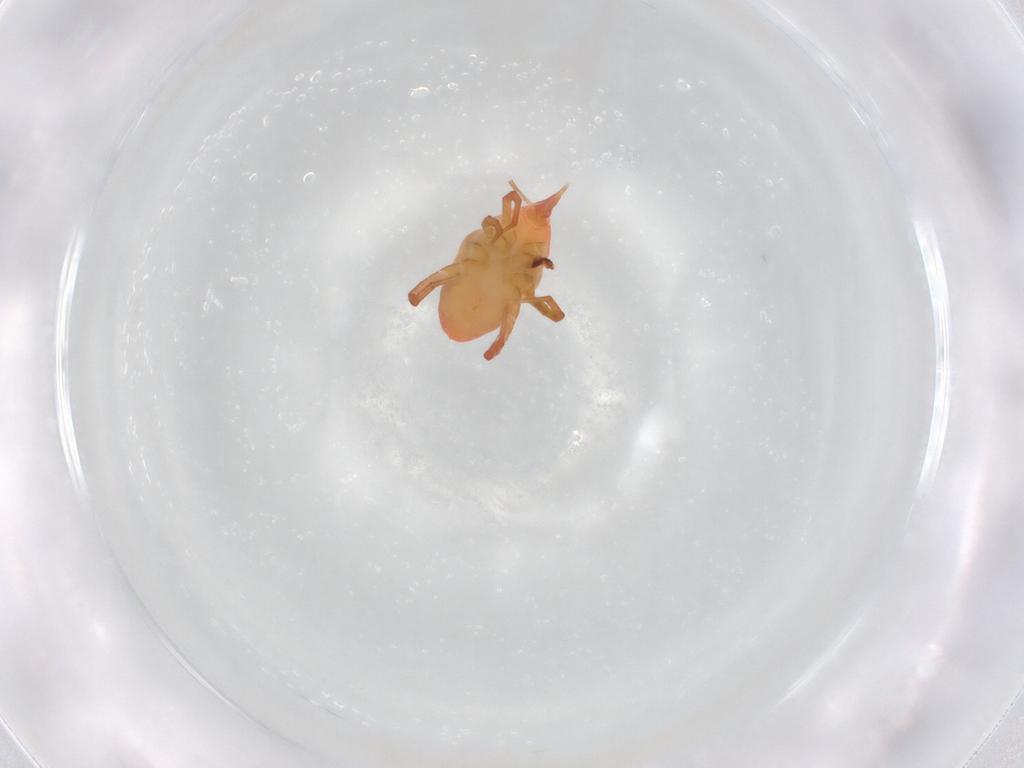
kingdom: Animalia
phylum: Arthropoda
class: Arachnida
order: Trombidiformes
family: Bdellidae
